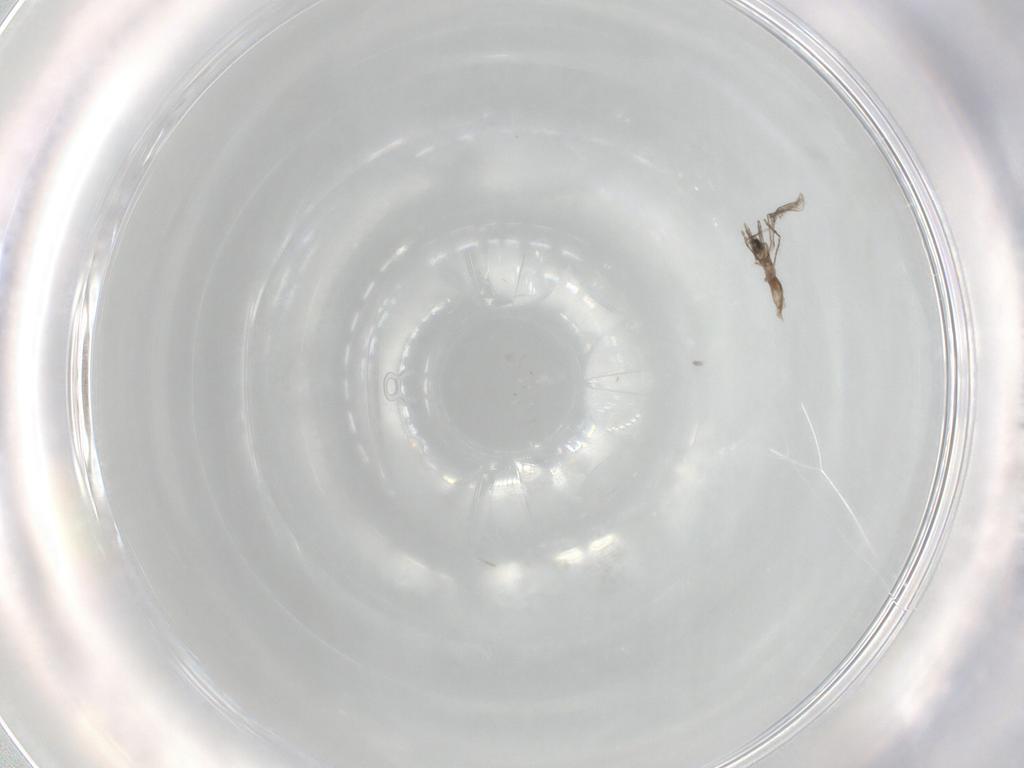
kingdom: Animalia
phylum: Arthropoda
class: Insecta
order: Diptera
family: Cecidomyiidae
